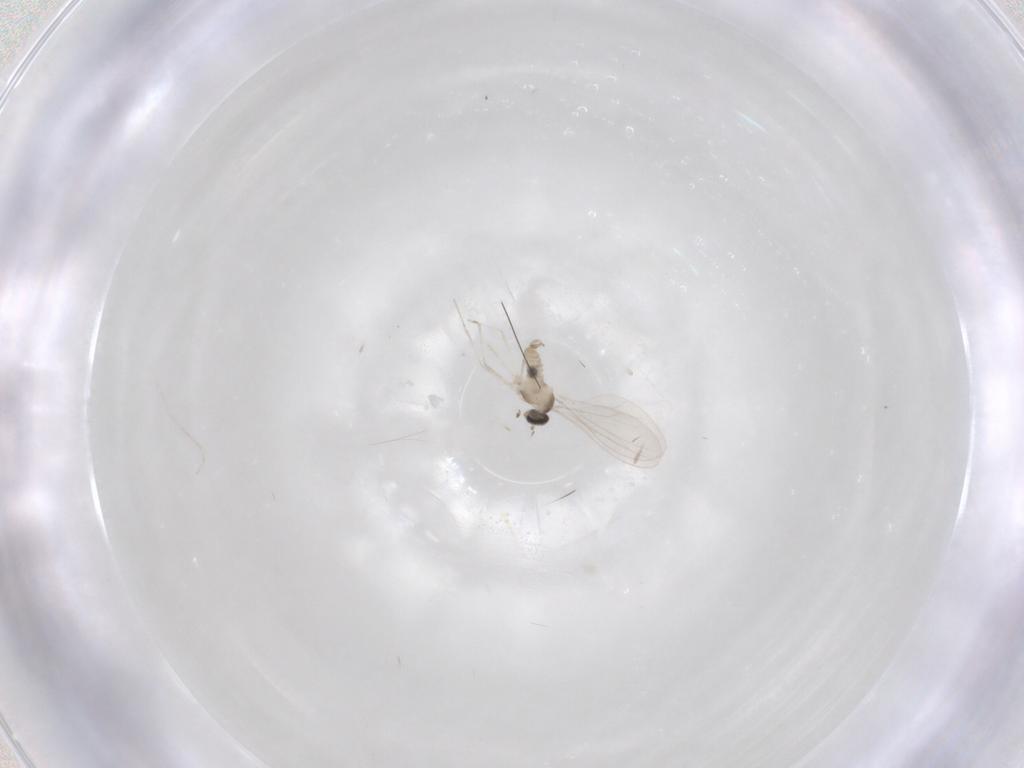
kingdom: Animalia
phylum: Arthropoda
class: Insecta
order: Diptera
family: Cecidomyiidae
